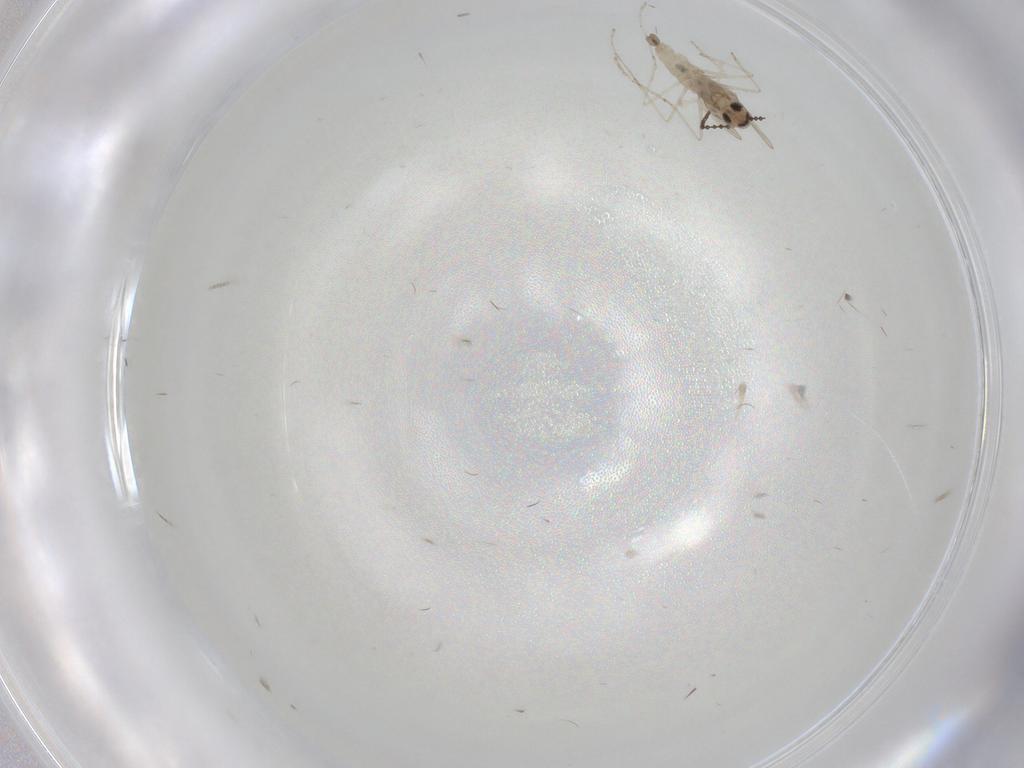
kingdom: Animalia
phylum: Arthropoda
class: Insecta
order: Diptera
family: Cecidomyiidae
